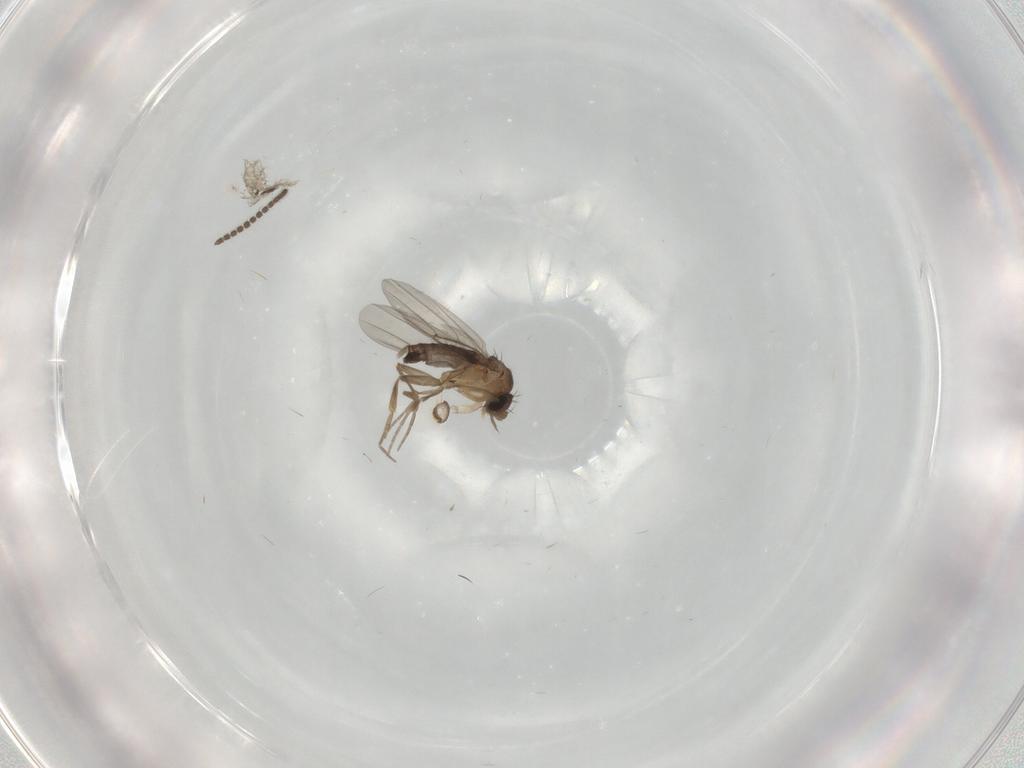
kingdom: Animalia
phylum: Arthropoda
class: Insecta
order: Diptera
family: Phoridae
